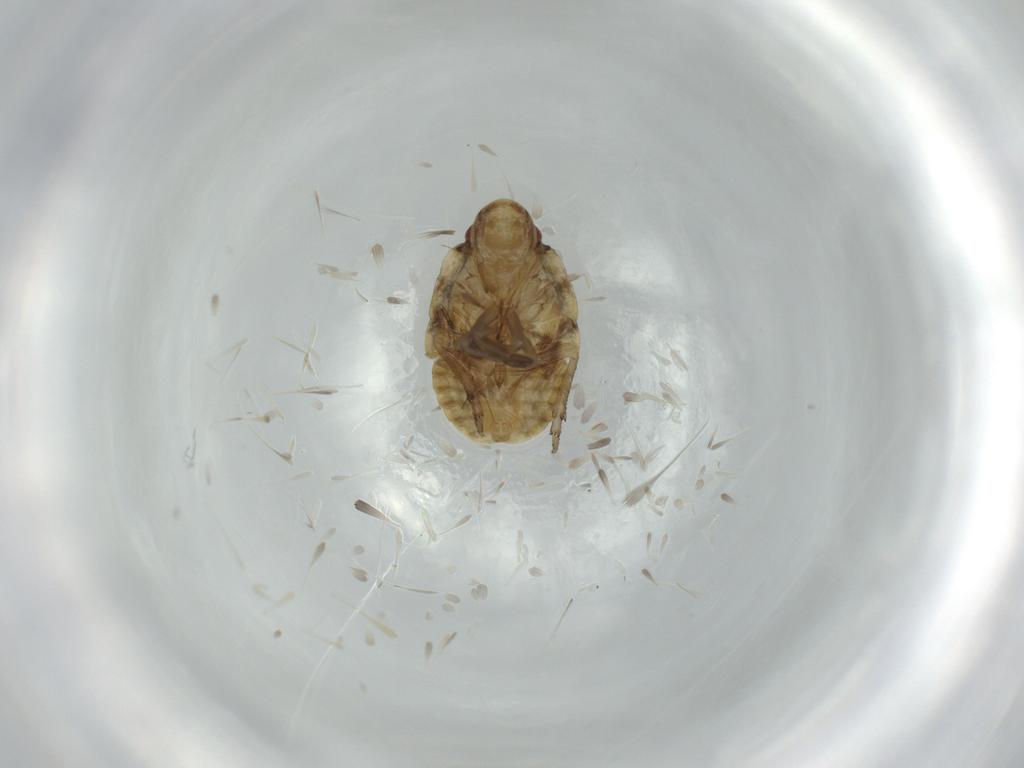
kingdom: Animalia
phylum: Arthropoda
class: Insecta
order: Hemiptera
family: Flatidae
